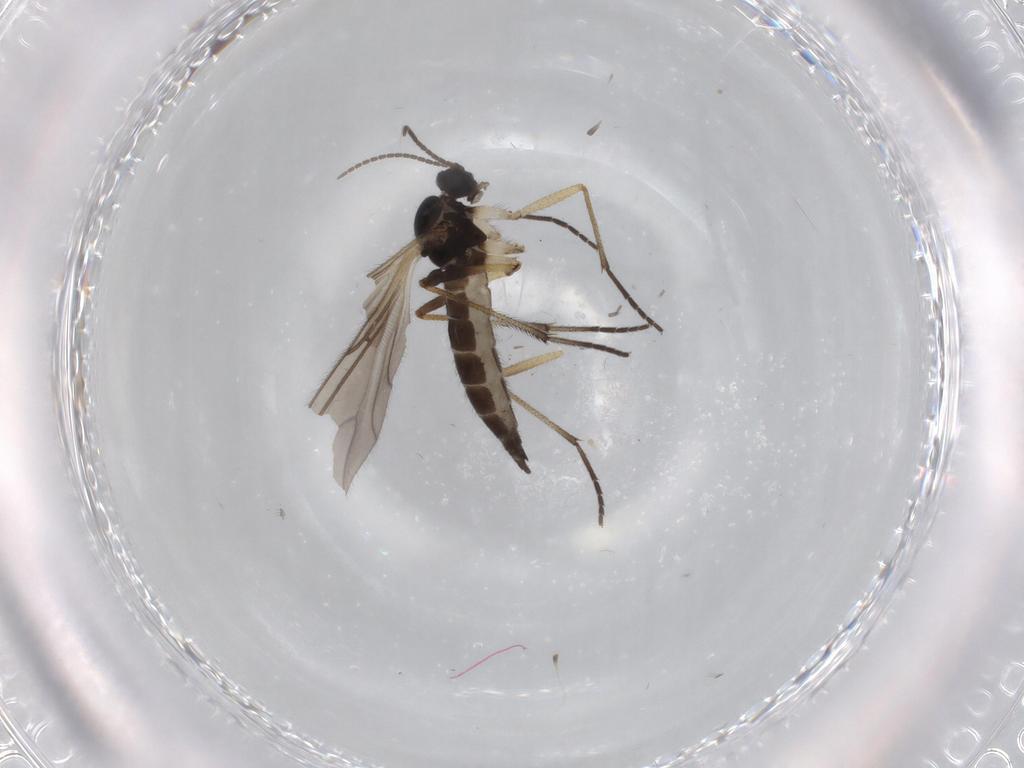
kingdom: Animalia
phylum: Arthropoda
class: Insecta
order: Diptera
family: Sciaridae
